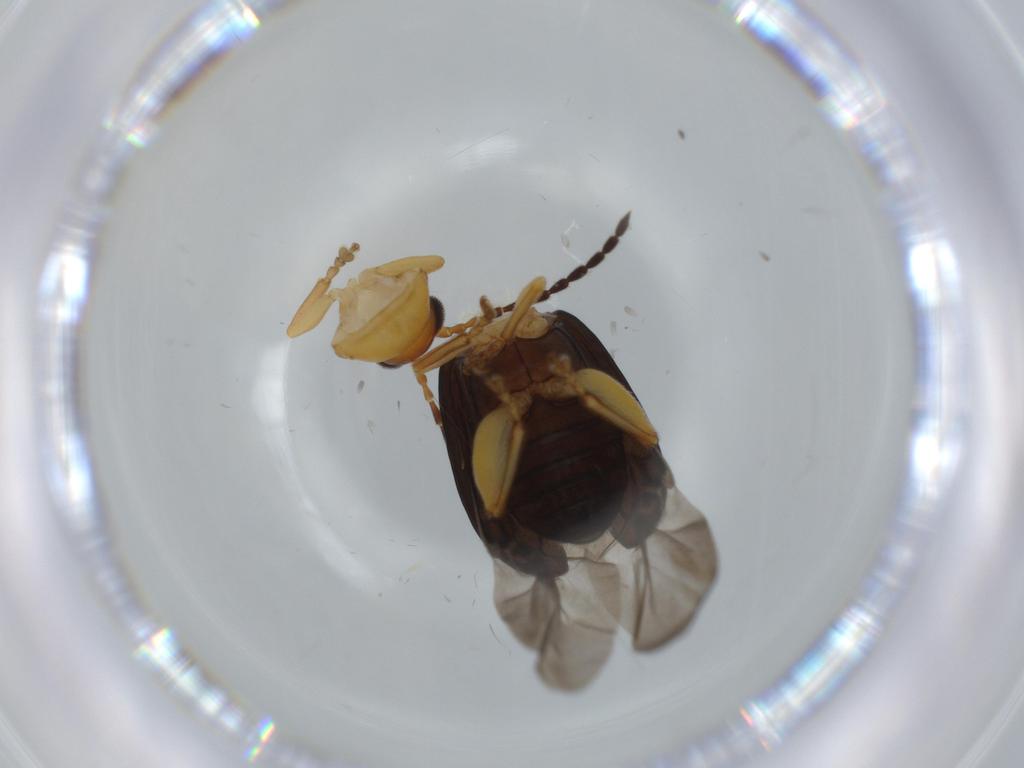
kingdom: Animalia
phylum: Arthropoda
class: Insecta
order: Coleoptera
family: Chrysomelidae
